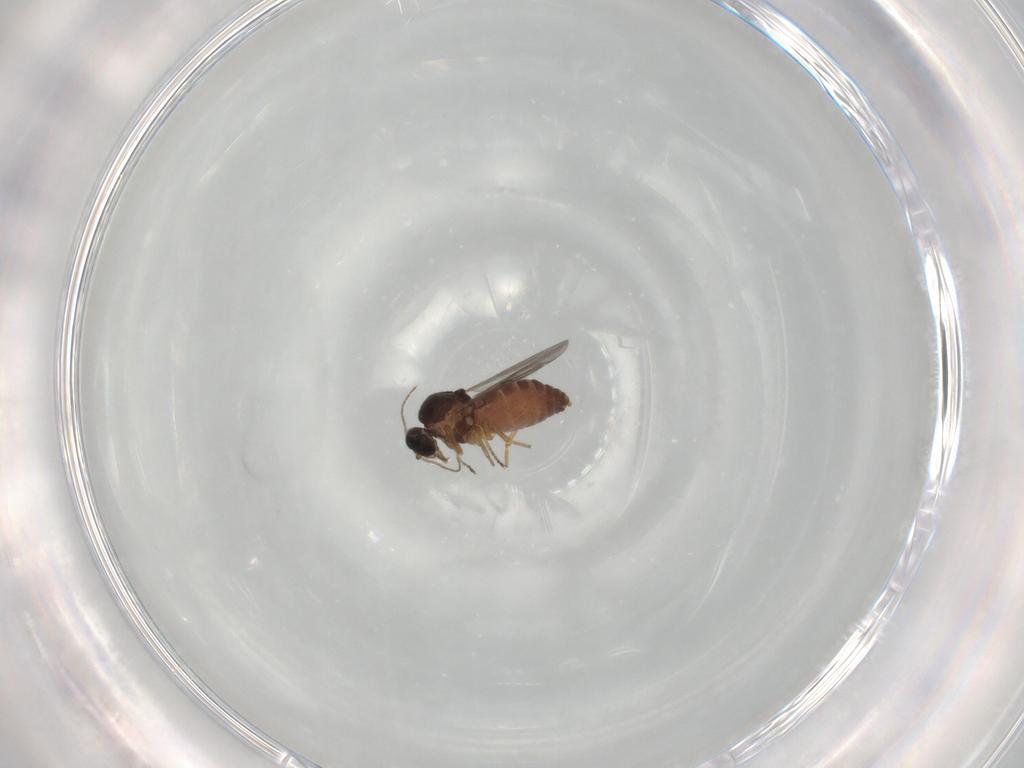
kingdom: Animalia
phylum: Arthropoda
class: Insecta
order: Diptera
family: Ceratopogonidae
